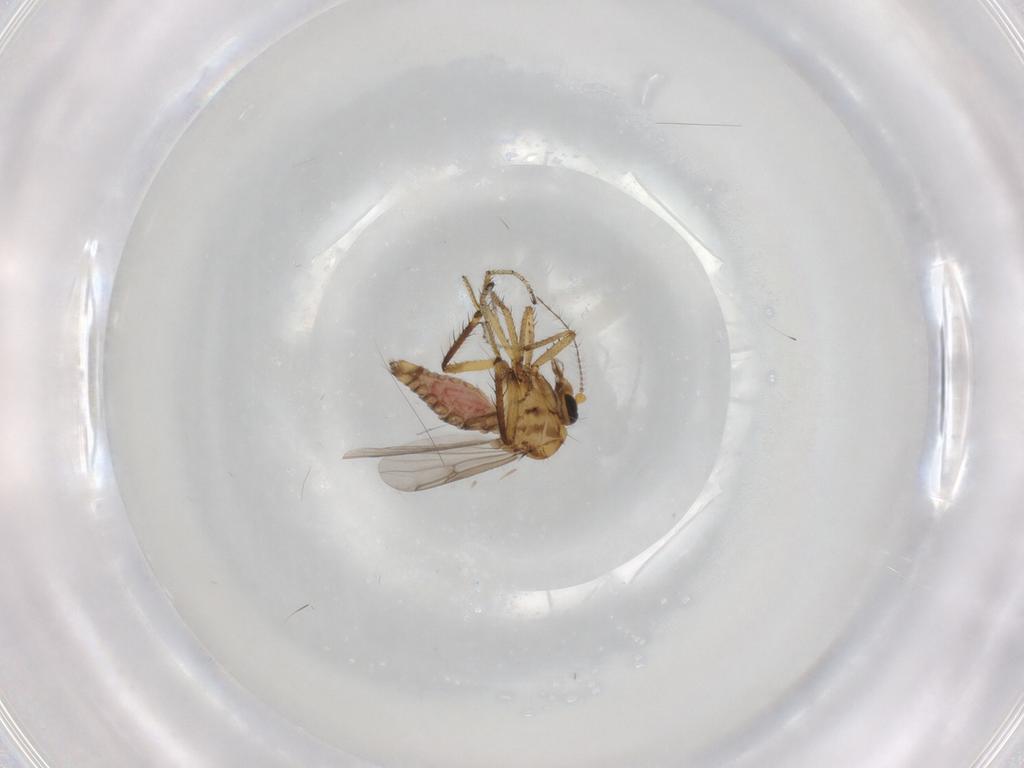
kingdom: Animalia
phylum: Arthropoda
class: Insecta
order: Diptera
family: Ceratopogonidae
